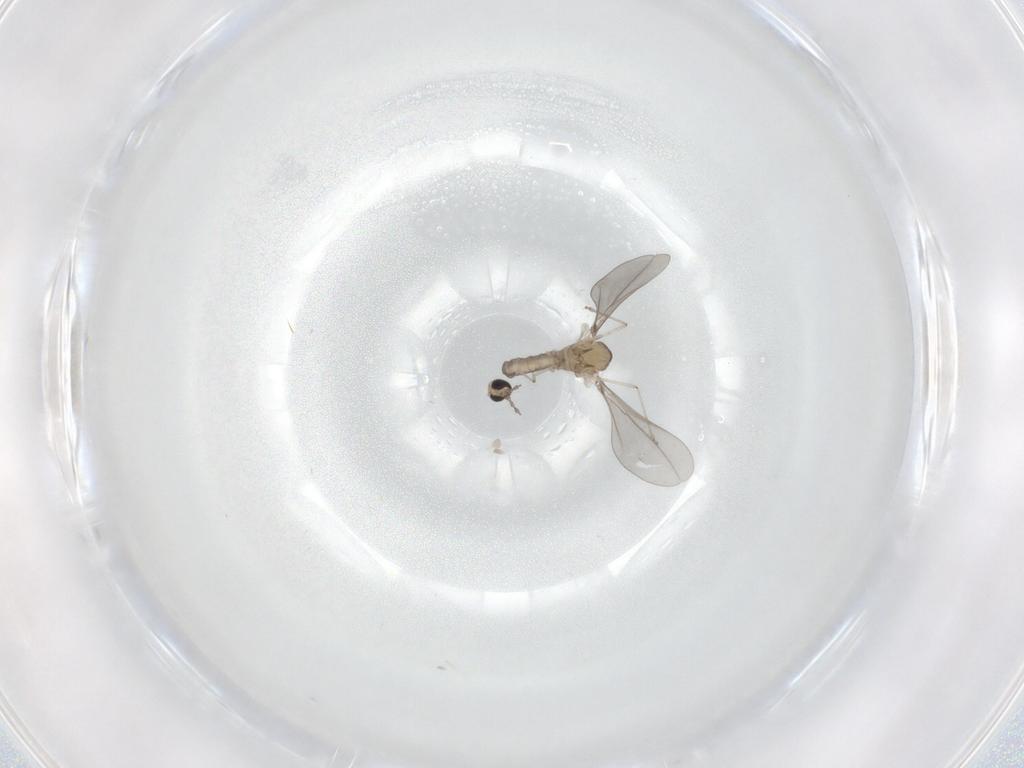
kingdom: Animalia
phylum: Arthropoda
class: Insecta
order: Diptera
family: Cecidomyiidae
